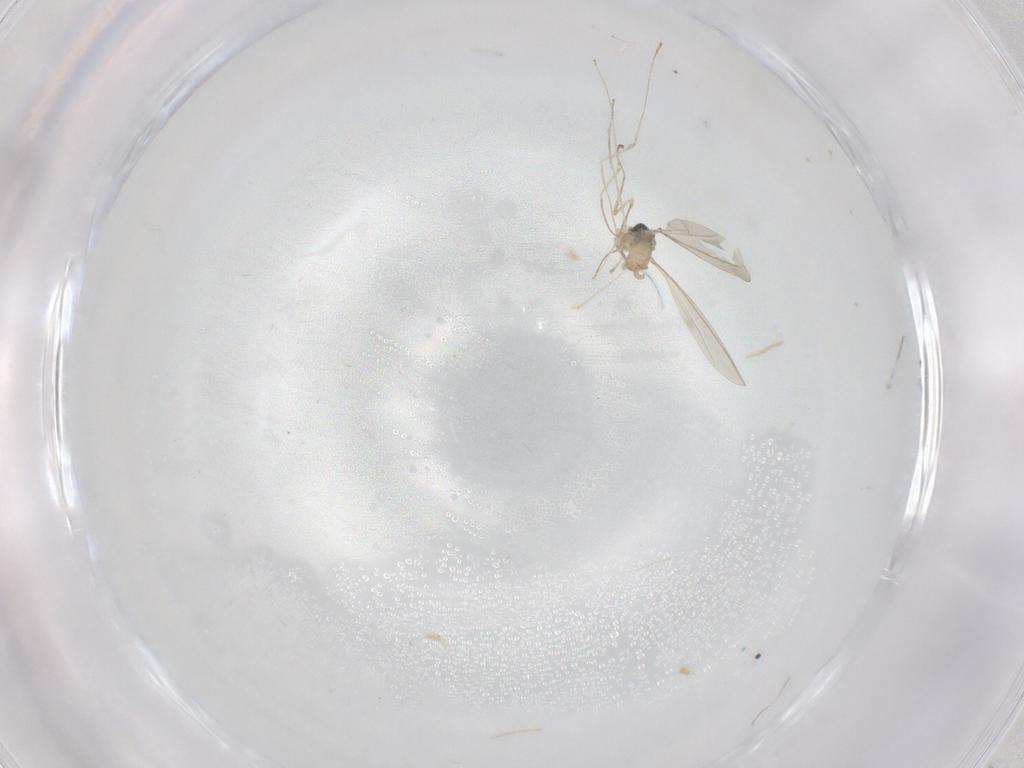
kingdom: Animalia
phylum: Arthropoda
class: Insecta
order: Diptera
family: Cecidomyiidae
